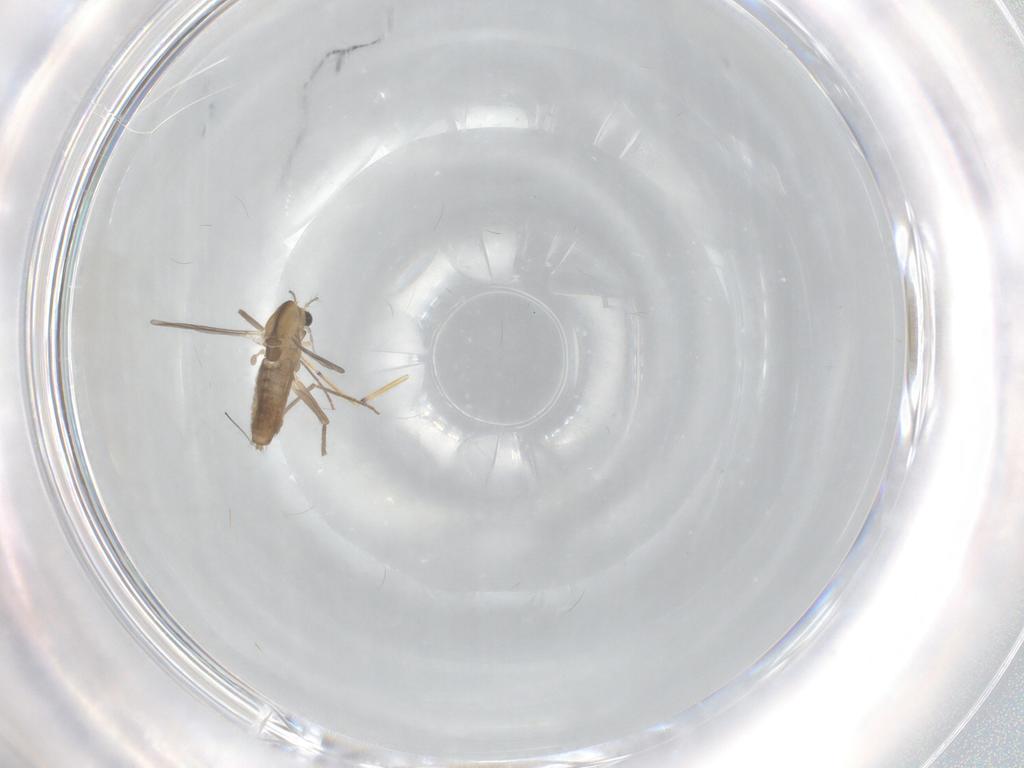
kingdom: Animalia
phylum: Arthropoda
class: Insecta
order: Diptera
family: Chironomidae
